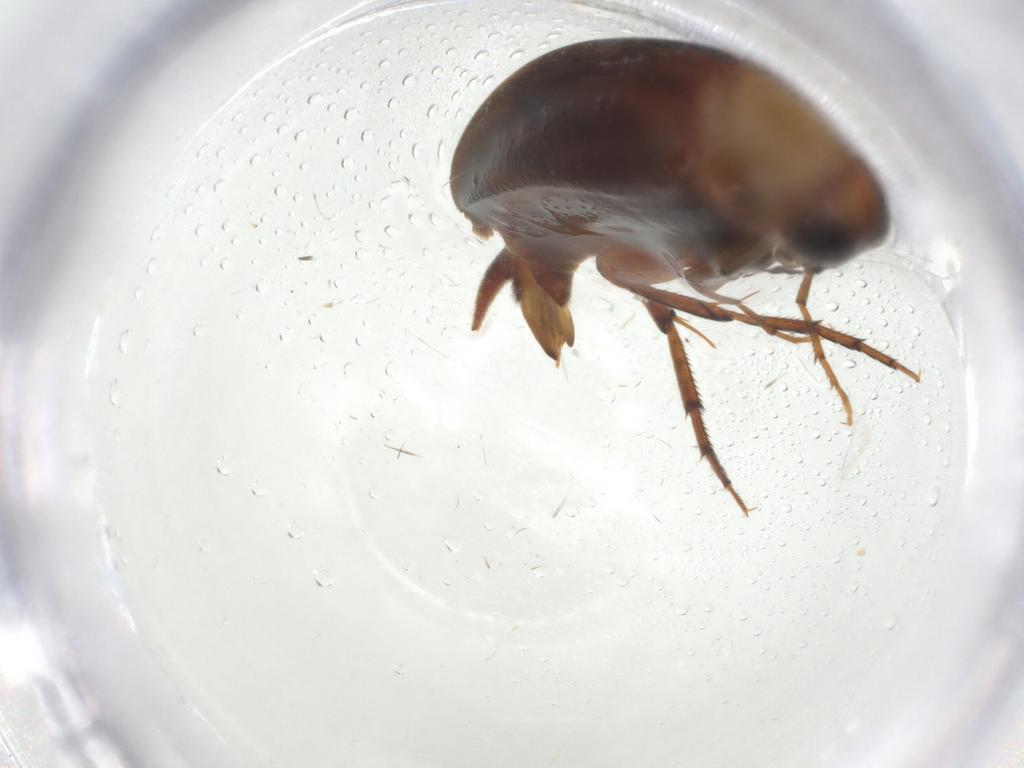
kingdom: Animalia
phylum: Arthropoda
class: Insecta
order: Coleoptera
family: Mordellidae
